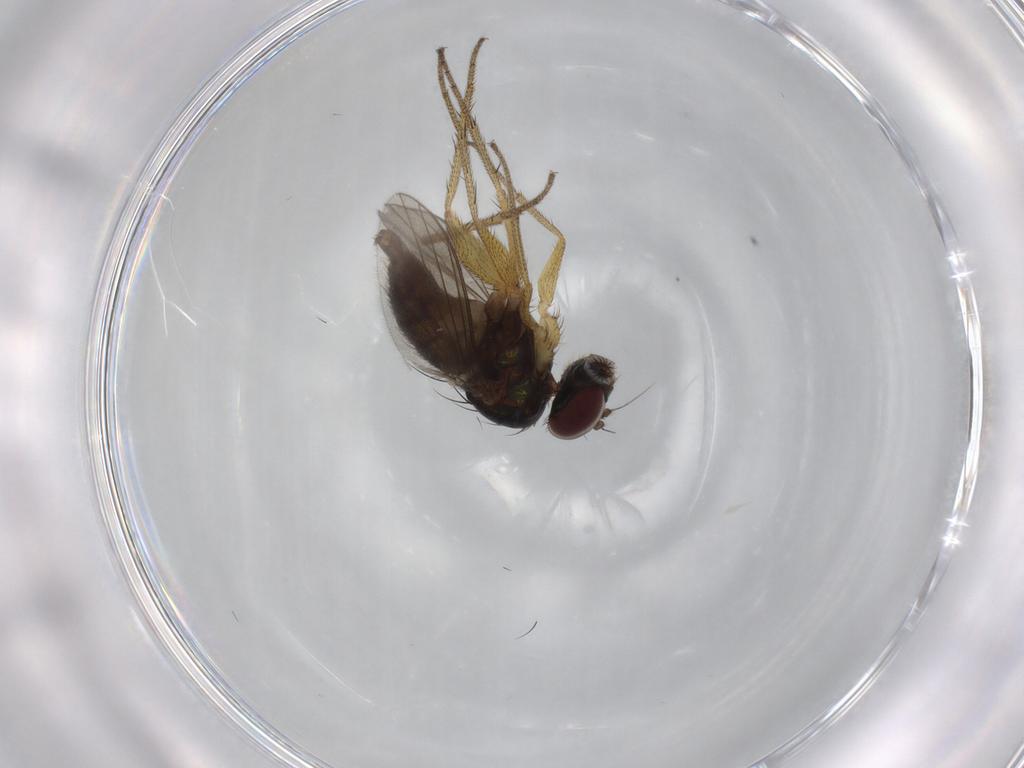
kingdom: Animalia
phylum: Arthropoda
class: Insecta
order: Diptera
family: Dolichopodidae
